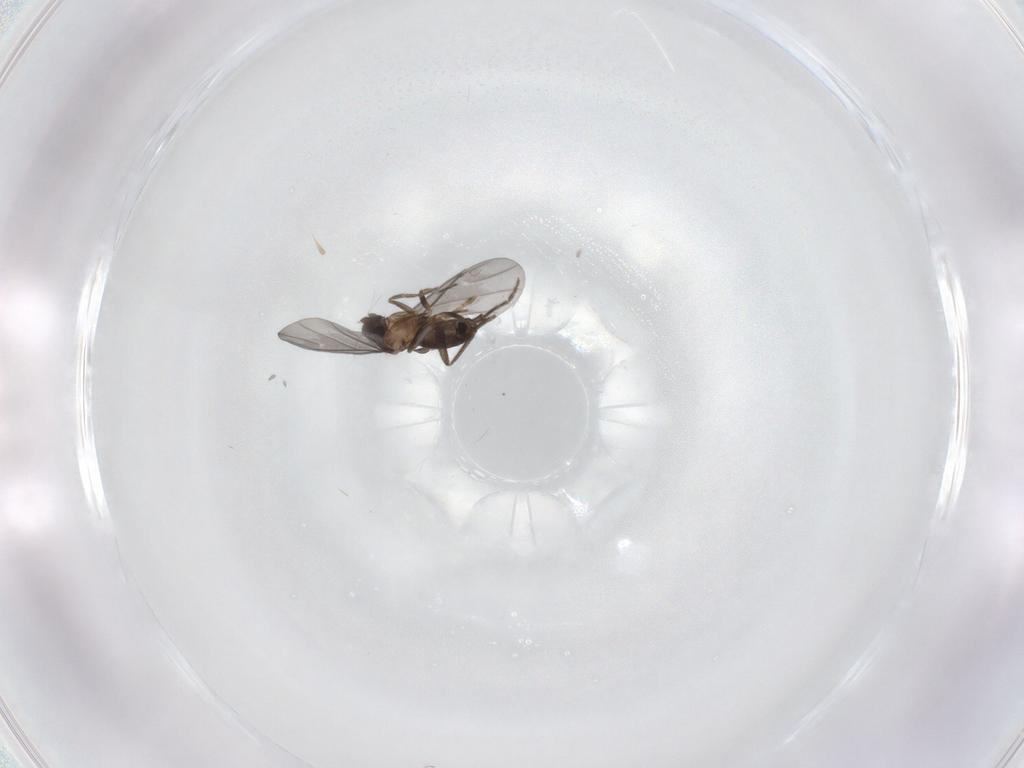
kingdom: Animalia
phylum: Arthropoda
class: Insecta
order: Diptera
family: Phoridae
